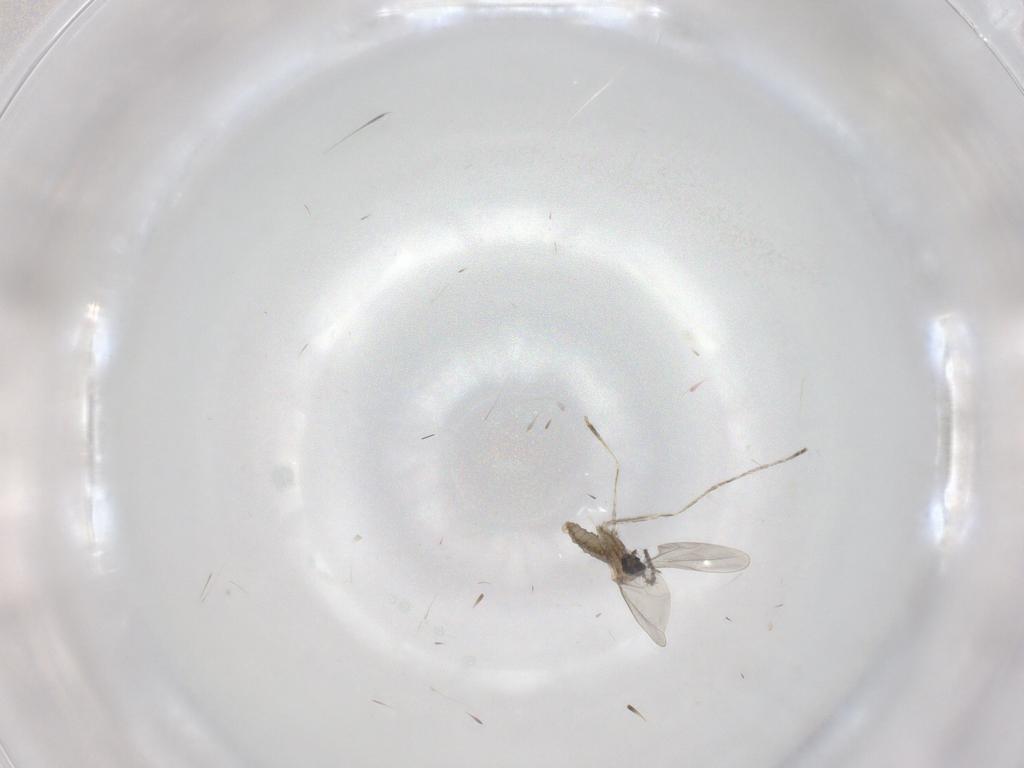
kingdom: Animalia
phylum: Arthropoda
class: Insecta
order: Diptera
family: Cecidomyiidae
